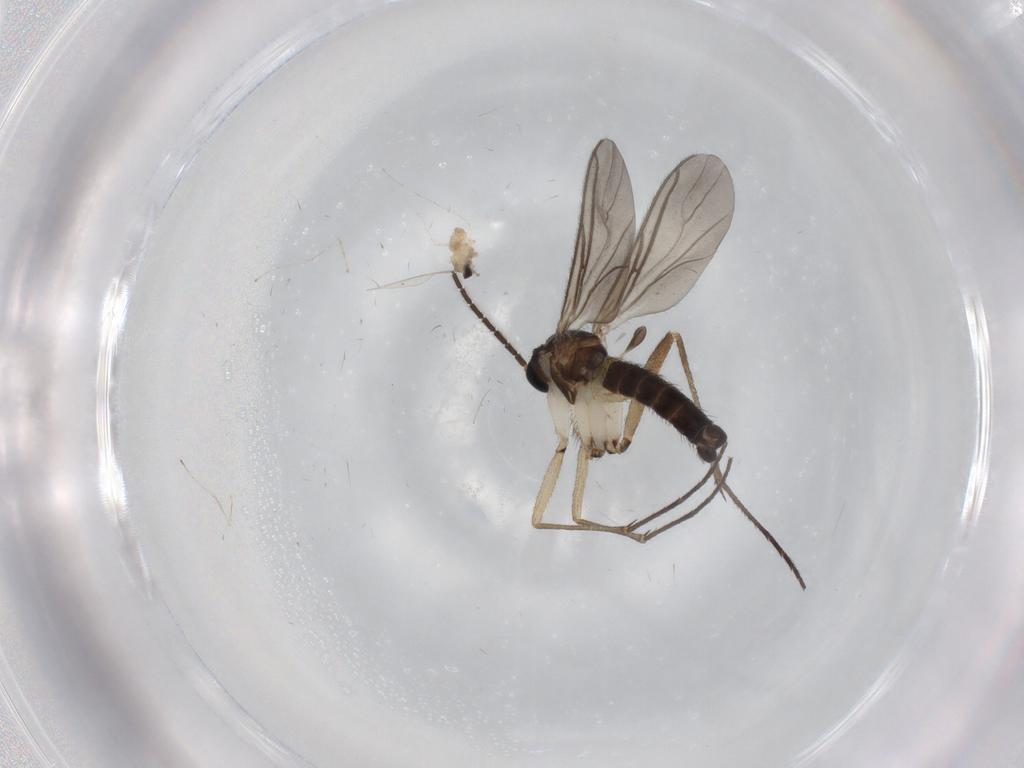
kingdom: Animalia
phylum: Arthropoda
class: Insecta
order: Diptera
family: Cecidomyiidae
